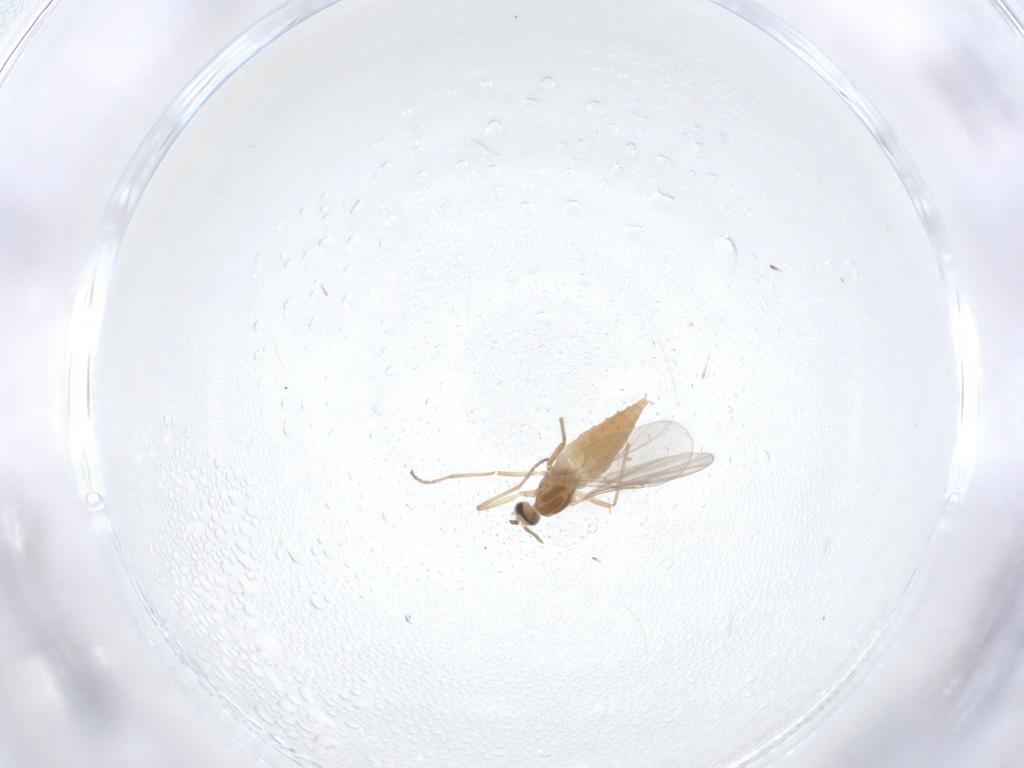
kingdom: Animalia
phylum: Arthropoda
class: Insecta
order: Diptera
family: Cecidomyiidae
